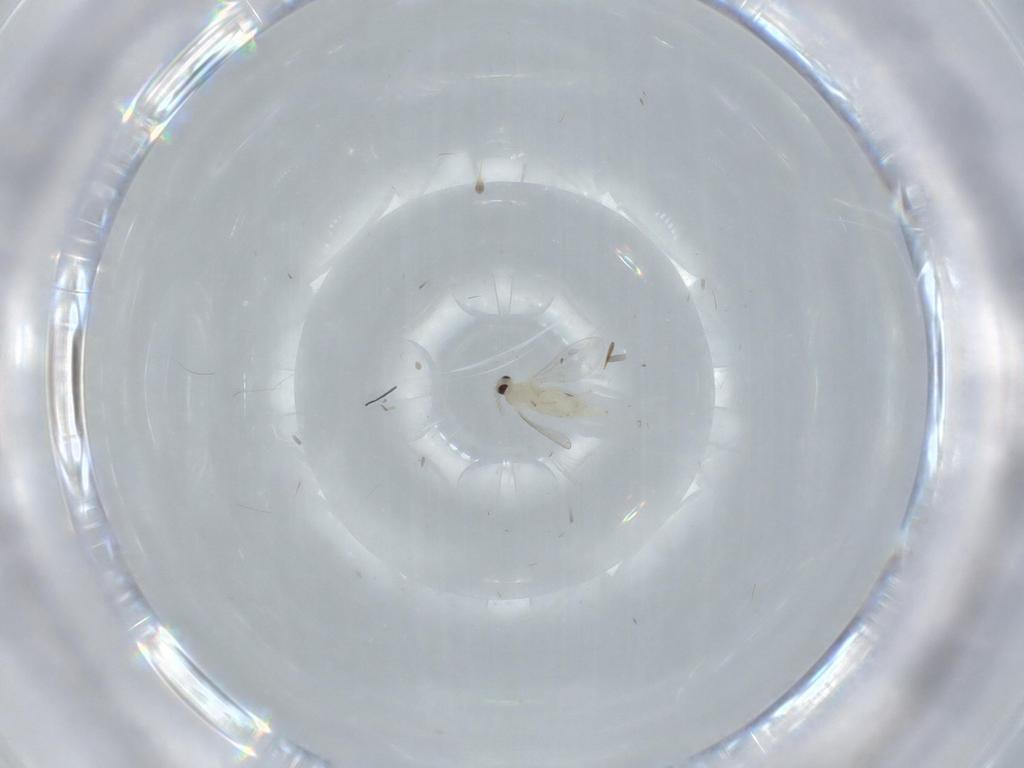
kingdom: Animalia
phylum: Arthropoda
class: Insecta
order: Diptera
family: Cecidomyiidae
